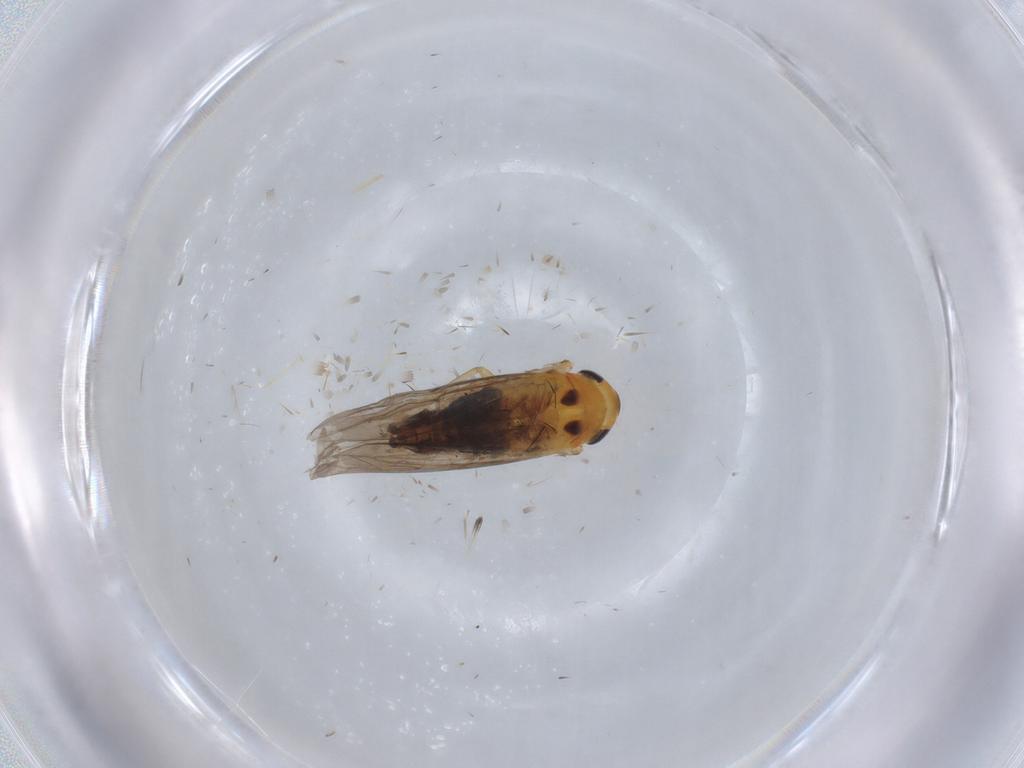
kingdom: Animalia
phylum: Arthropoda
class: Insecta
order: Hemiptera
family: Cicadellidae
